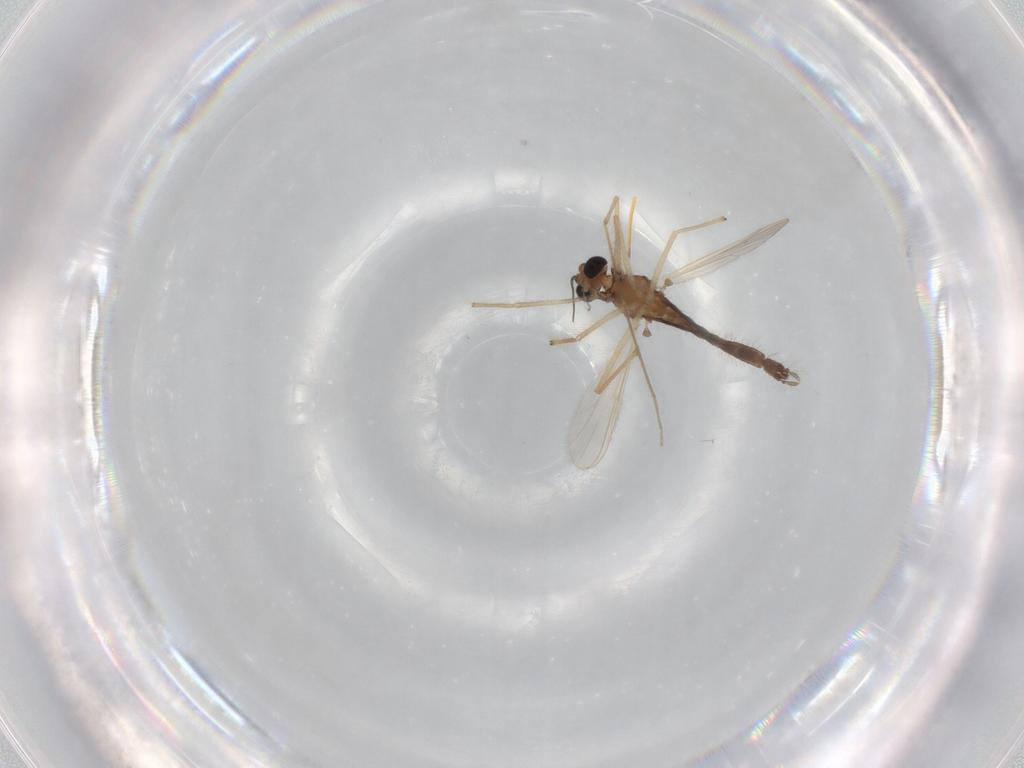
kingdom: Animalia
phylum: Arthropoda
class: Insecta
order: Diptera
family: Chironomidae
